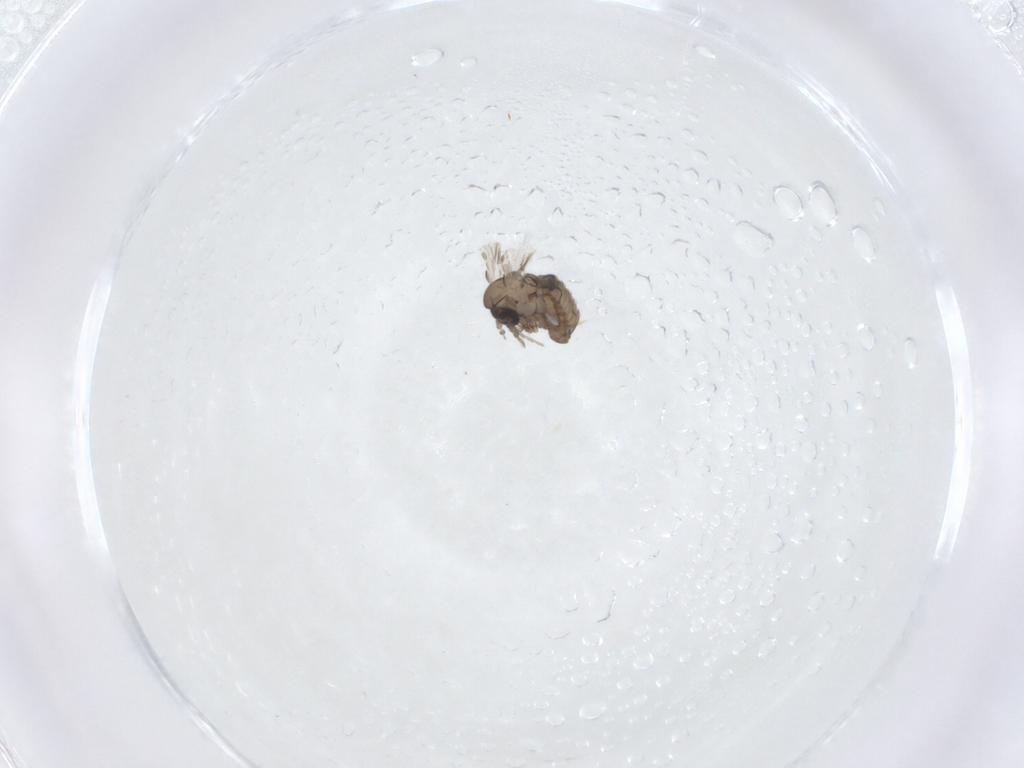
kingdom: Animalia
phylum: Arthropoda
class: Insecta
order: Diptera
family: Psychodidae
